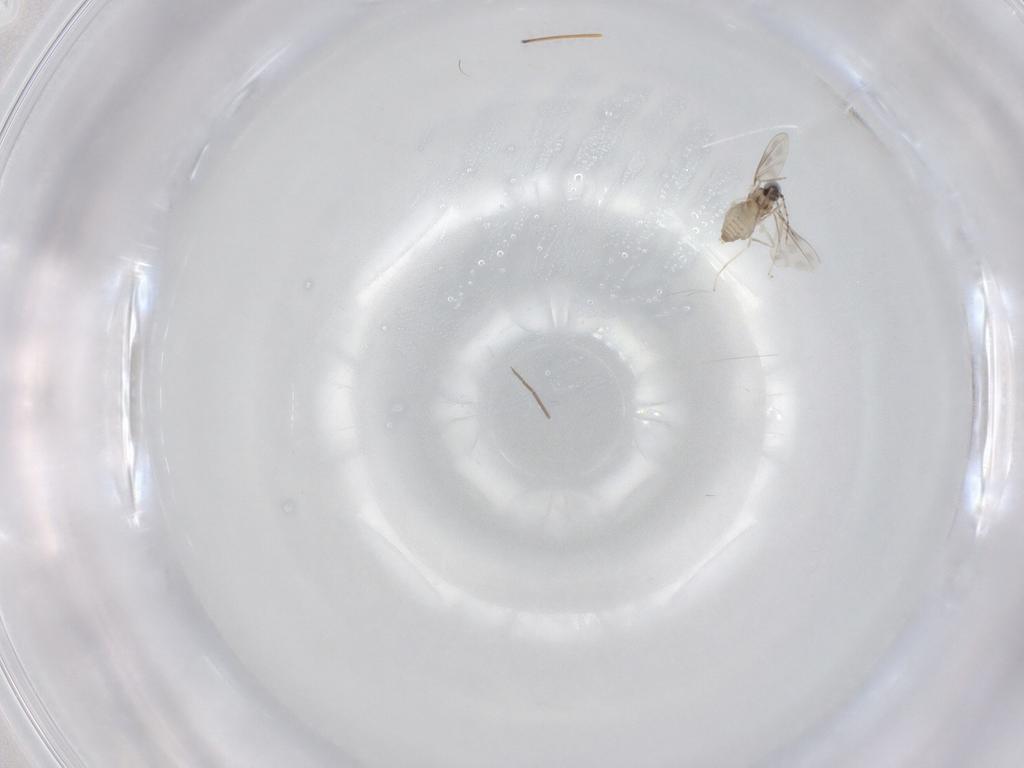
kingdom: Animalia
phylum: Arthropoda
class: Insecta
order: Diptera
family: Cecidomyiidae
